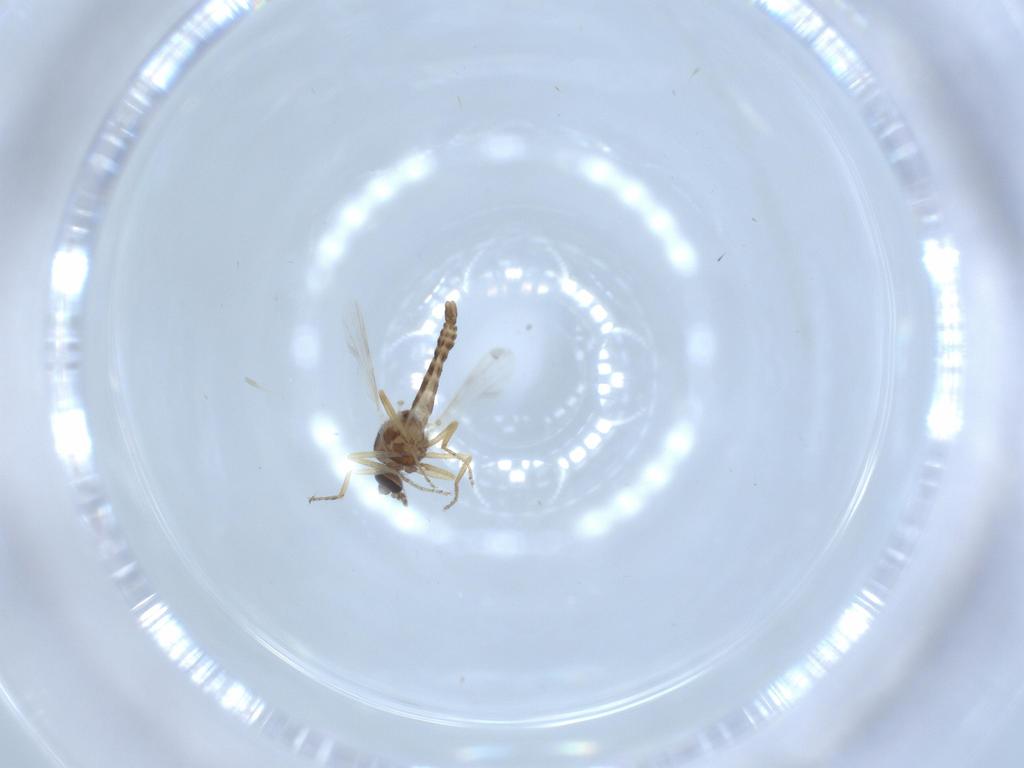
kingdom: Animalia
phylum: Arthropoda
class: Insecta
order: Diptera
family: Ceratopogonidae
